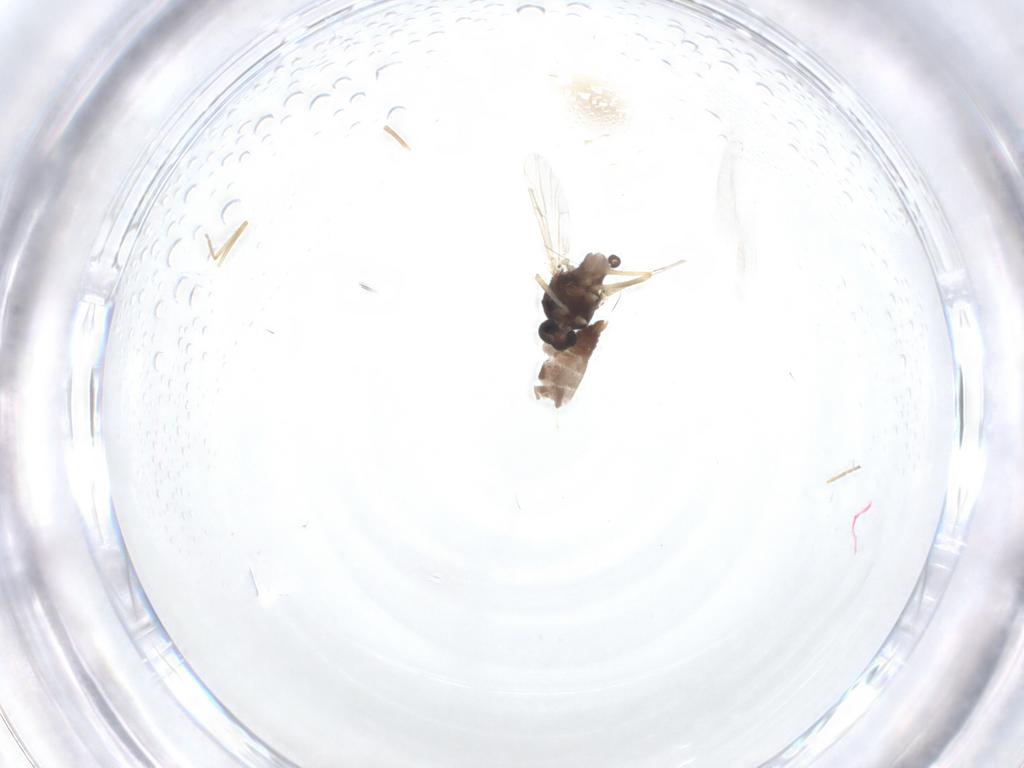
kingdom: Animalia
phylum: Arthropoda
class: Insecta
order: Diptera
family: Ceratopogonidae
